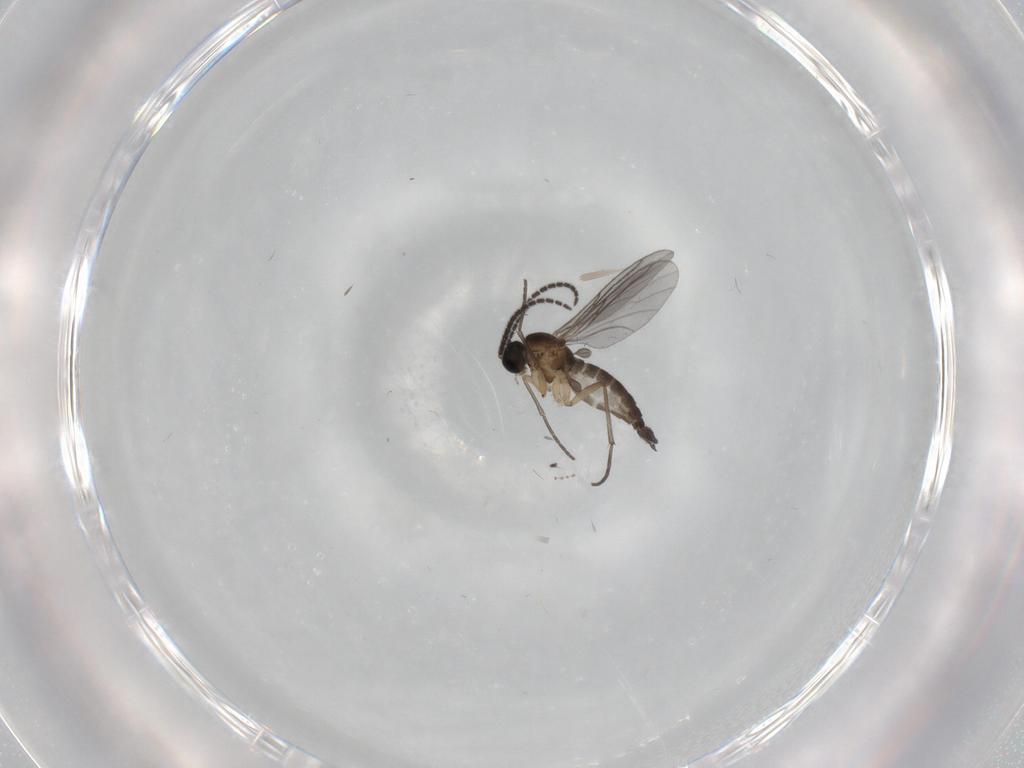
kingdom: Animalia
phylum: Arthropoda
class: Insecta
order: Diptera
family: Sciaridae
